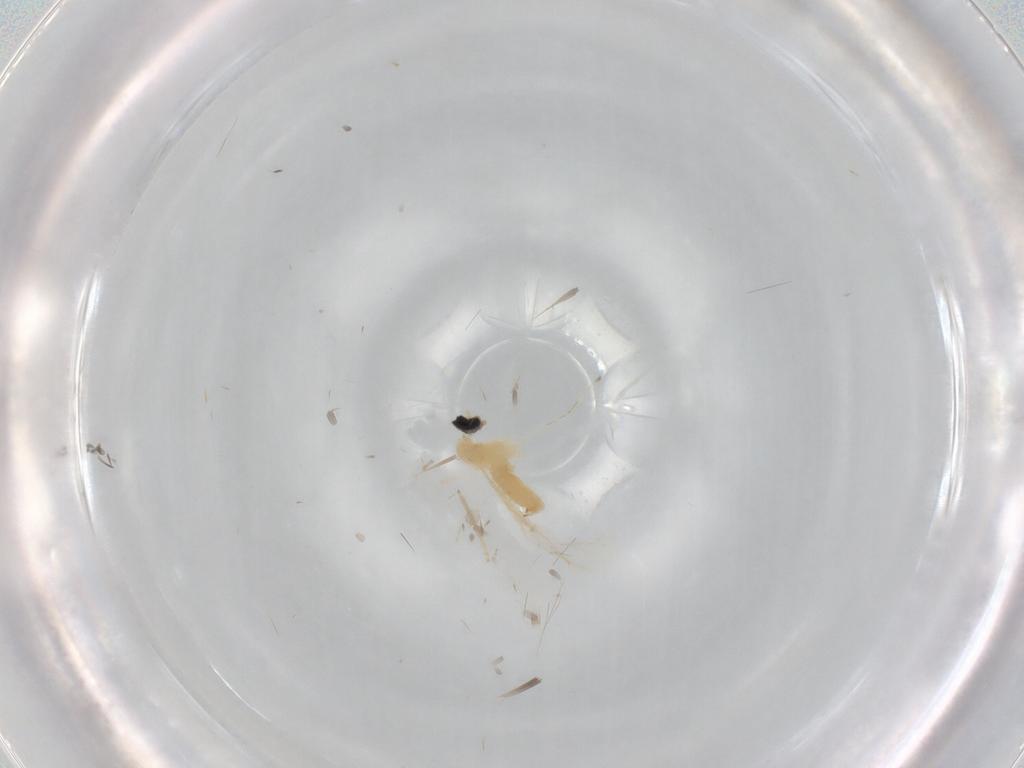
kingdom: Animalia
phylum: Arthropoda
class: Insecta
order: Diptera
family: Cecidomyiidae
